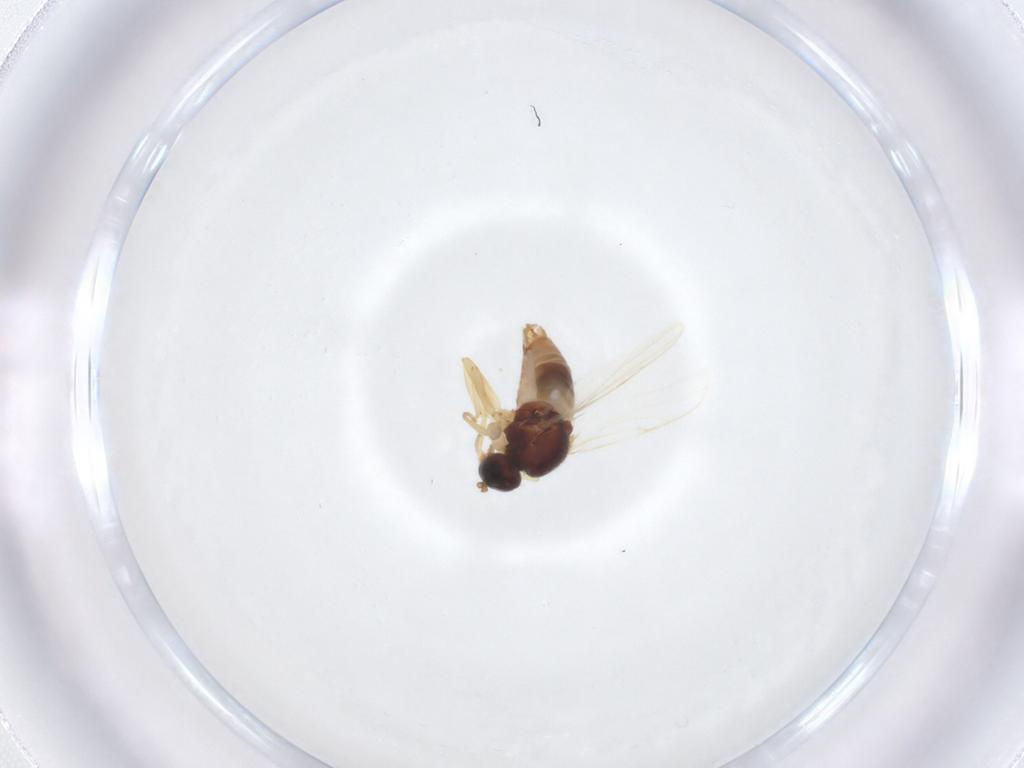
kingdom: Animalia
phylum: Arthropoda
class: Insecta
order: Diptera
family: Hybotidae
